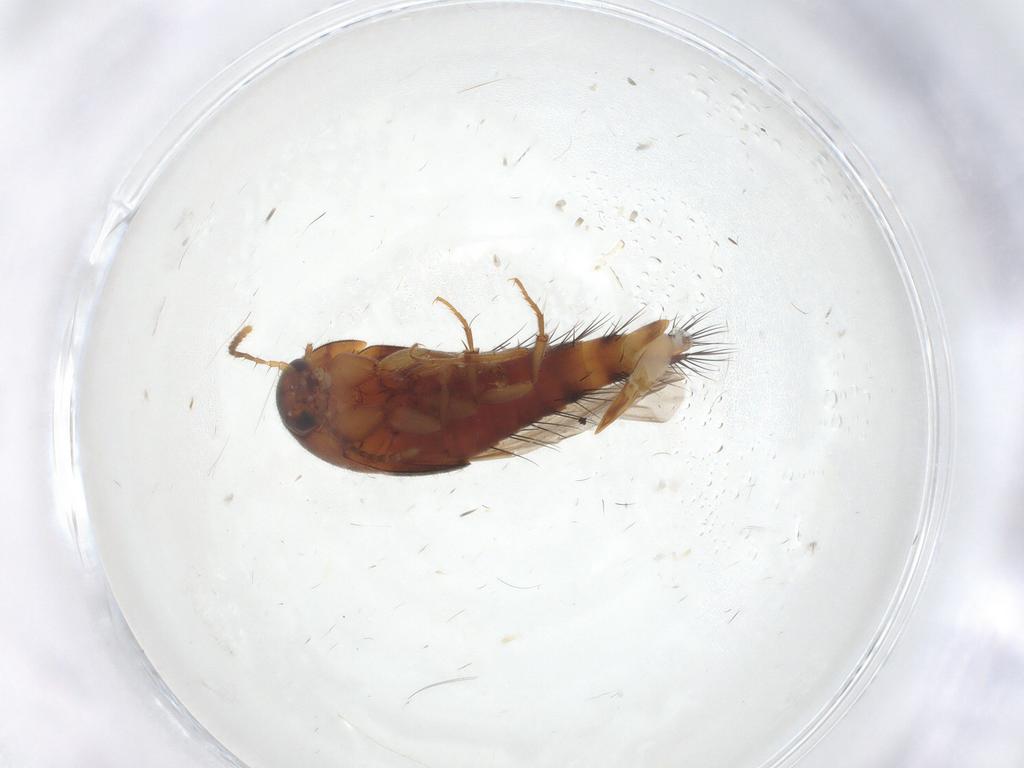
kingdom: Animalia
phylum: Arthropoda
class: Insecta
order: Coleoptera
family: Staphylinidae
